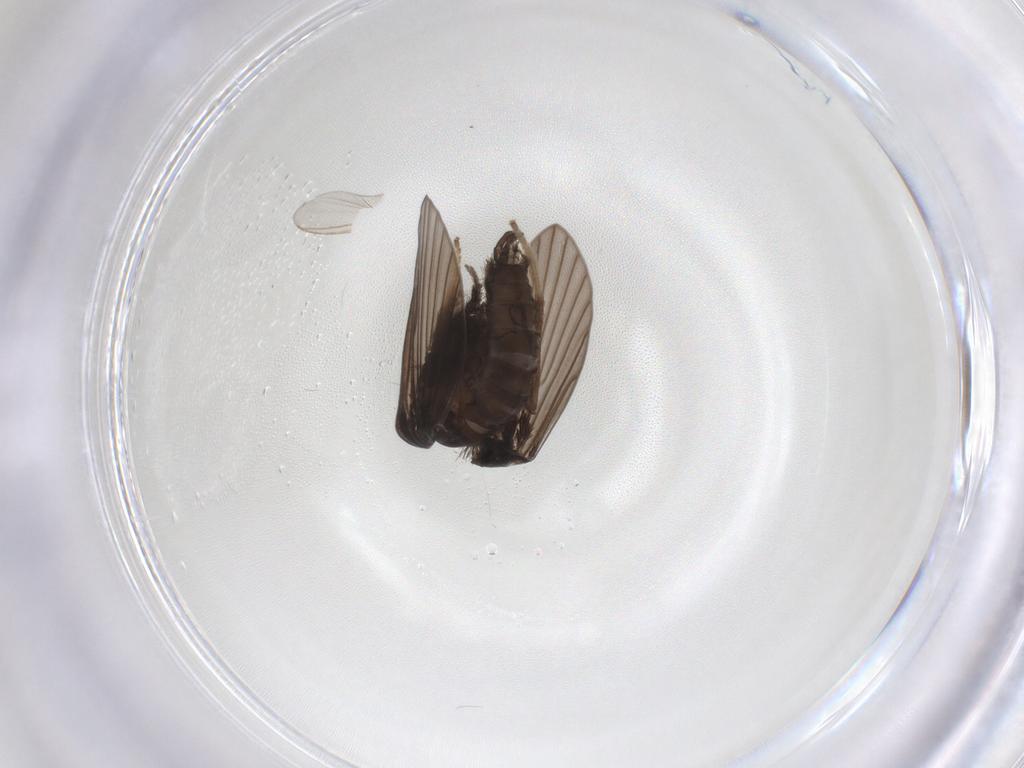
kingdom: Animalia
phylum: Arthropoda
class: Insecta
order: Diptera
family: Psychodidae
